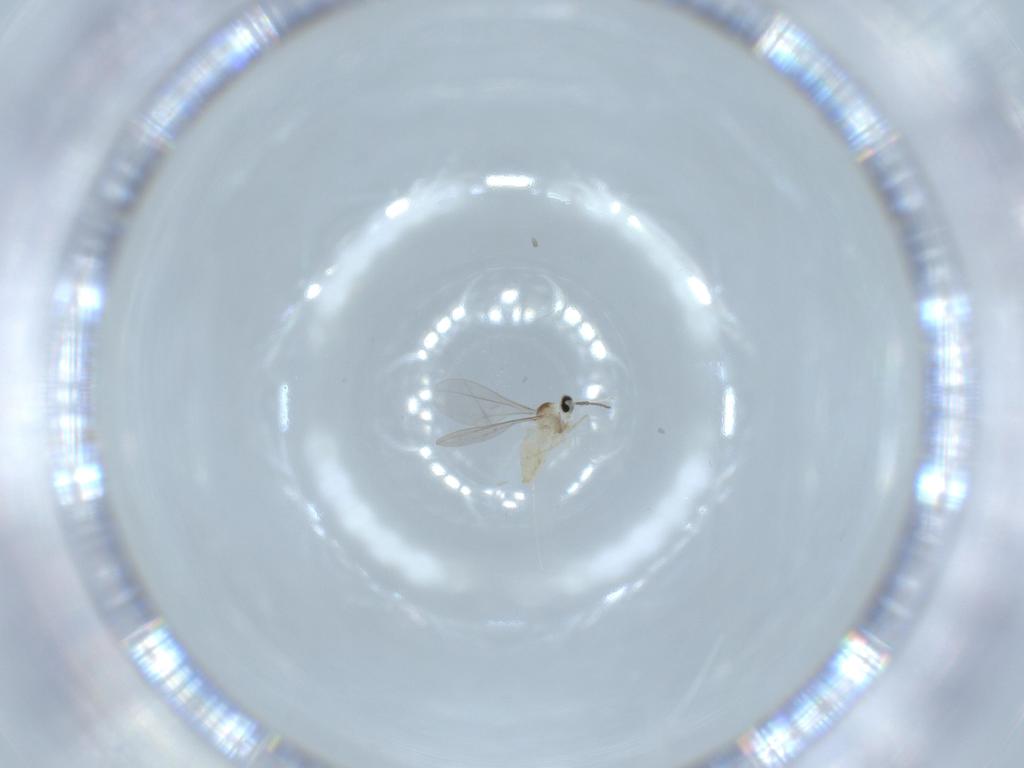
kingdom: Animalia
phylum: Arthropoda
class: Insecta
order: Diptera
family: Cecidomyiidae
